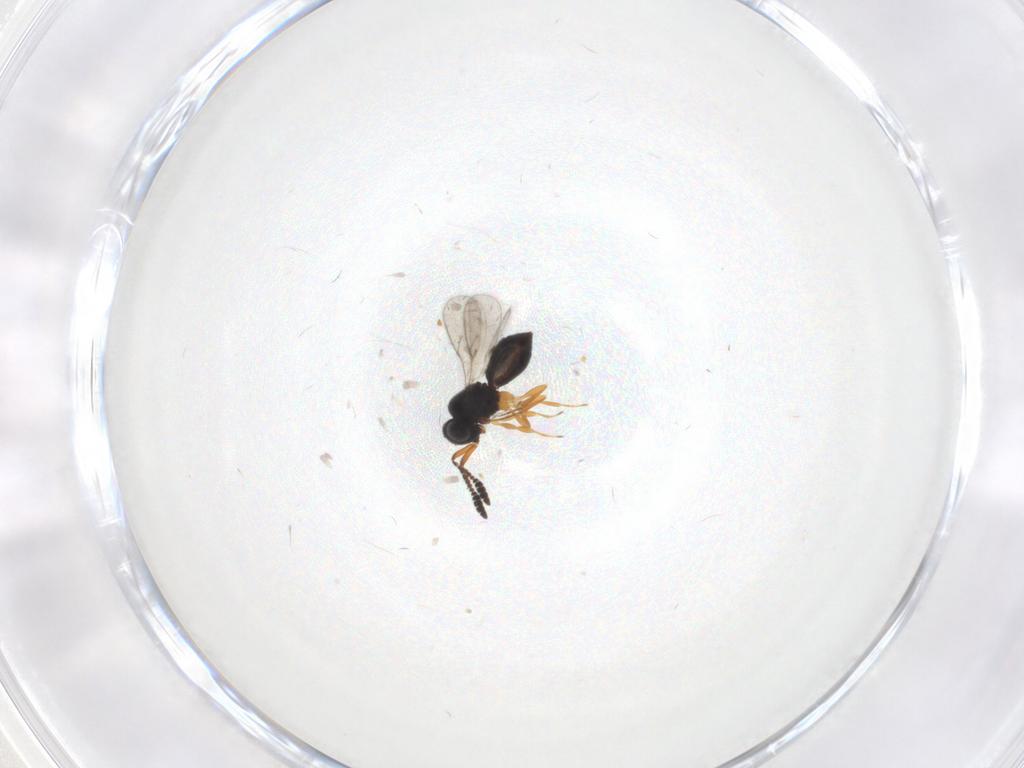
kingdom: Animalia
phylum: Arthropoda
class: Insecta
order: Hymenoptera
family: Scelionidae
